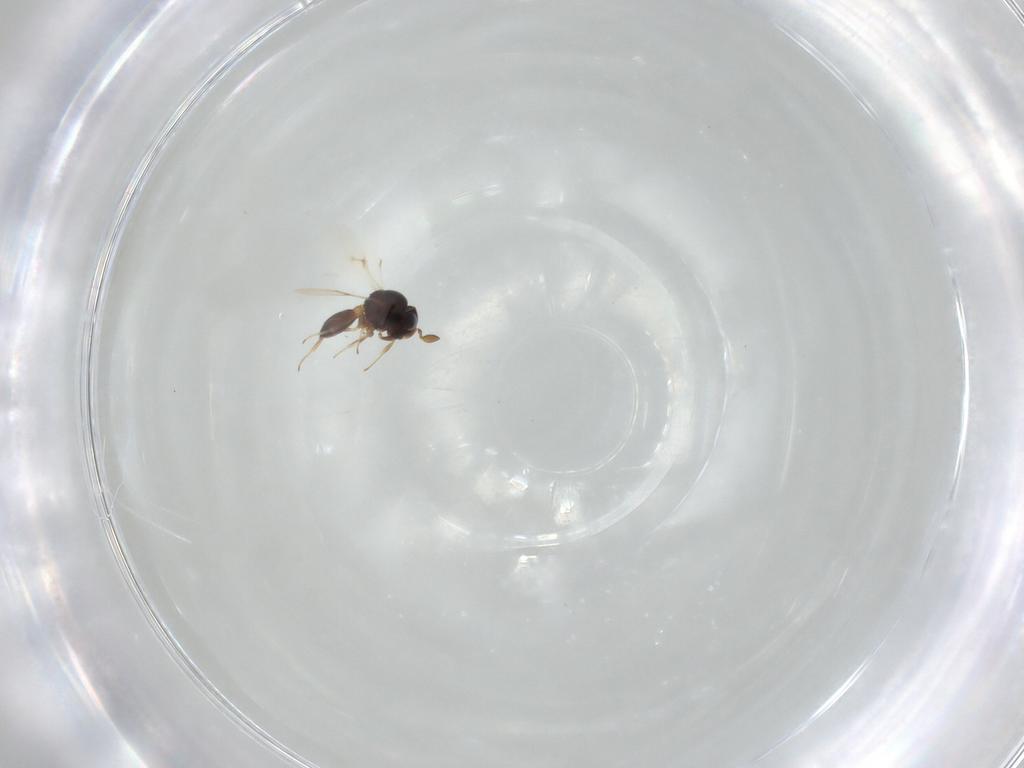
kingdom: Animalia
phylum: Arthropoda
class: Insecta
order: Hymenoptera
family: Scelionidae
